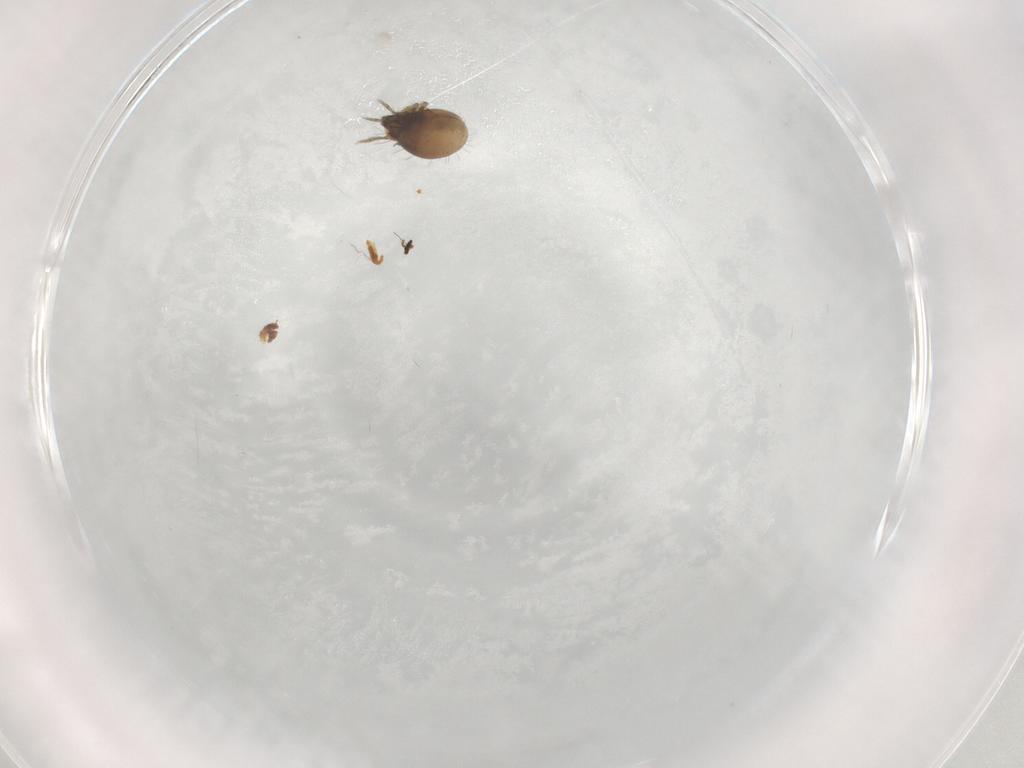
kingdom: Animalia
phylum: Arthropoda
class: Arachnida
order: Sarcoptiformes
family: Humerobatidae
